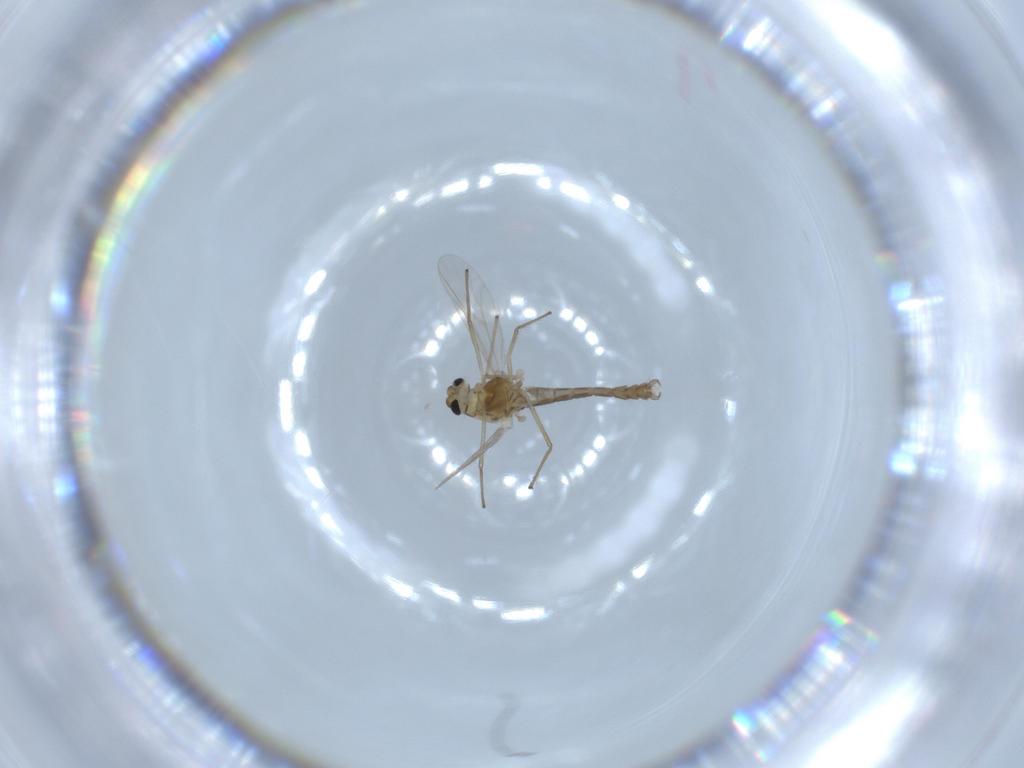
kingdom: Animalia
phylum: Arthropoda
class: Insecta
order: Diptera
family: Chironomidae
